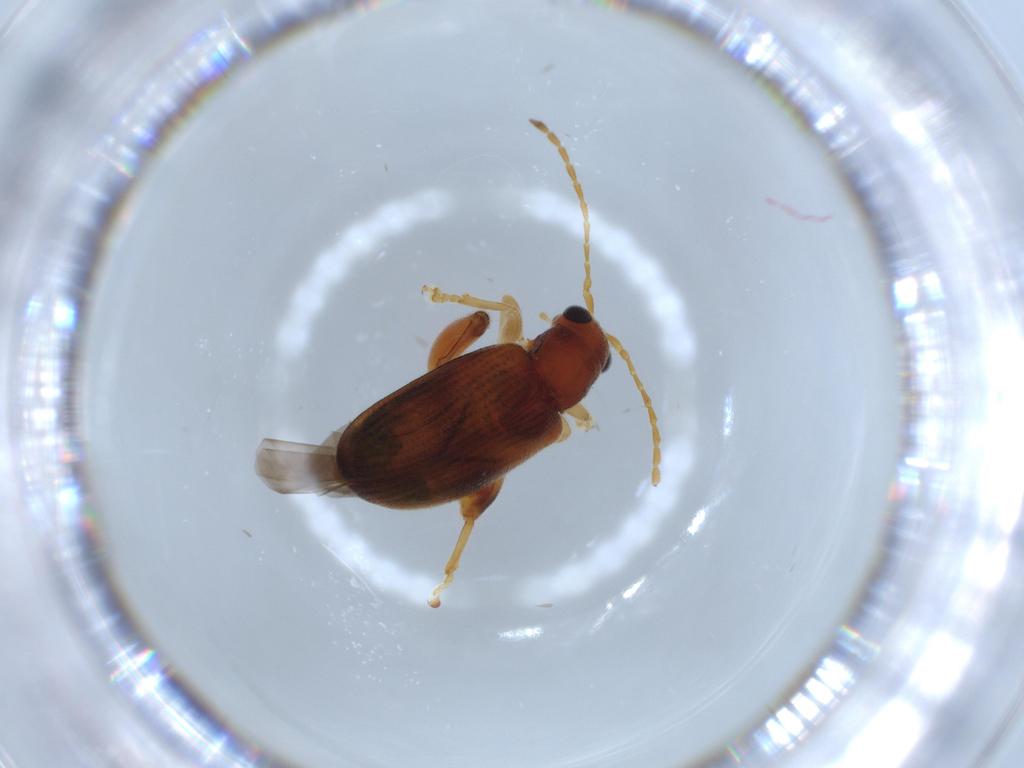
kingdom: Animalia
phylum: Arthropoda
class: Insecta
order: Coleoptera
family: Chrysomelidae
